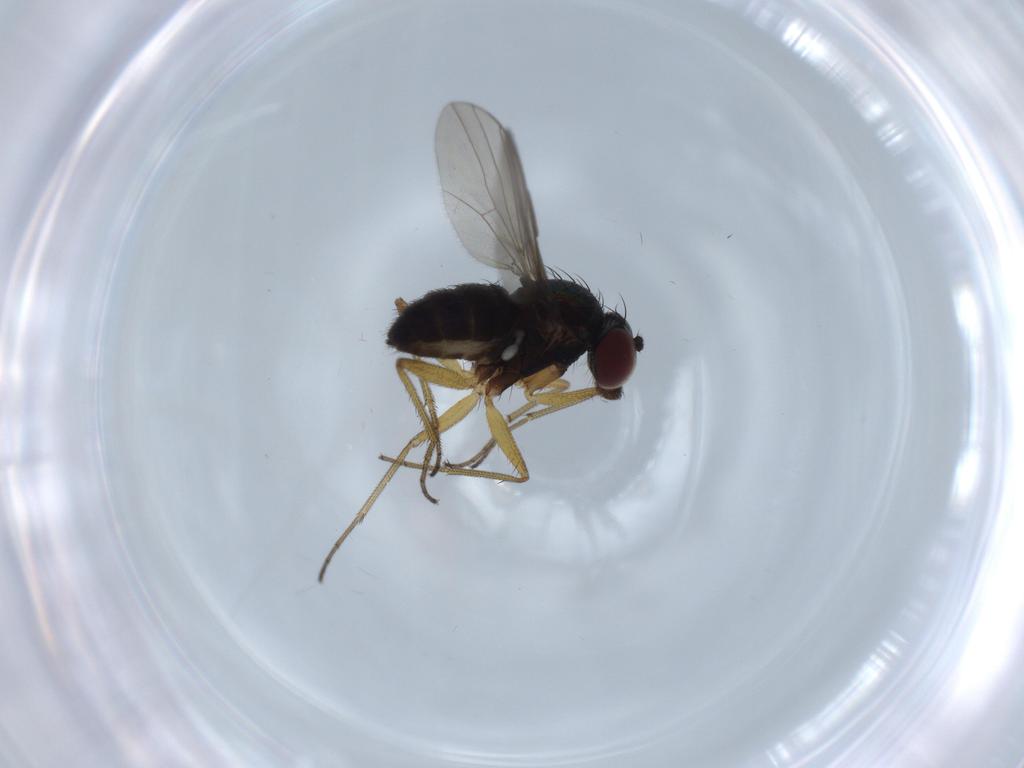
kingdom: Animalia
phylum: Arthropoda
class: Insecta
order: Diptera
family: Dolichopodidae
